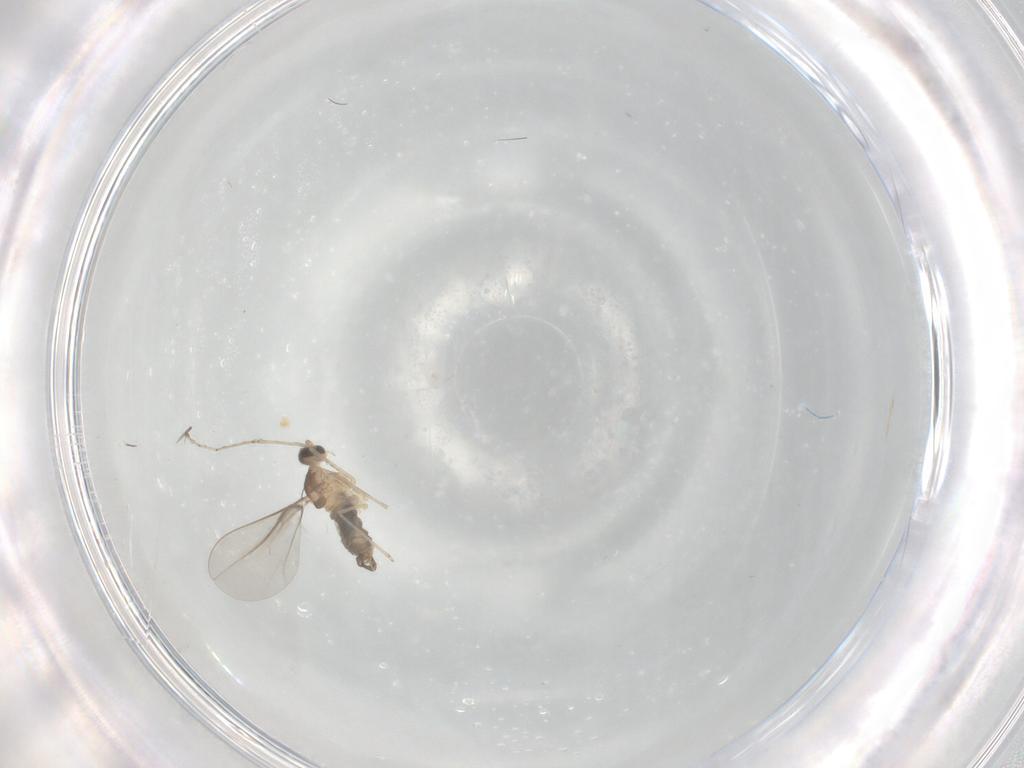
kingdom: Animalia
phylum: Arthropoda
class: Insecta
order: Diptera
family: Cecidomyiidae
